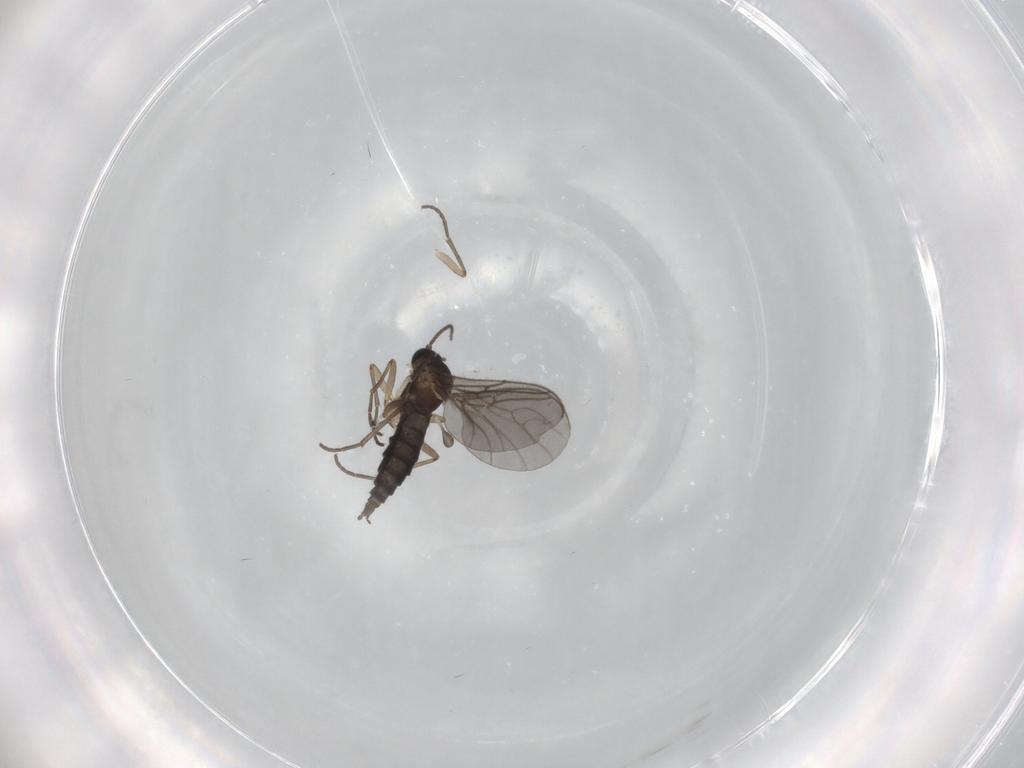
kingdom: Animalia
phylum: Arthropoda
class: Insecta
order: Diptera
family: Sciaridae
